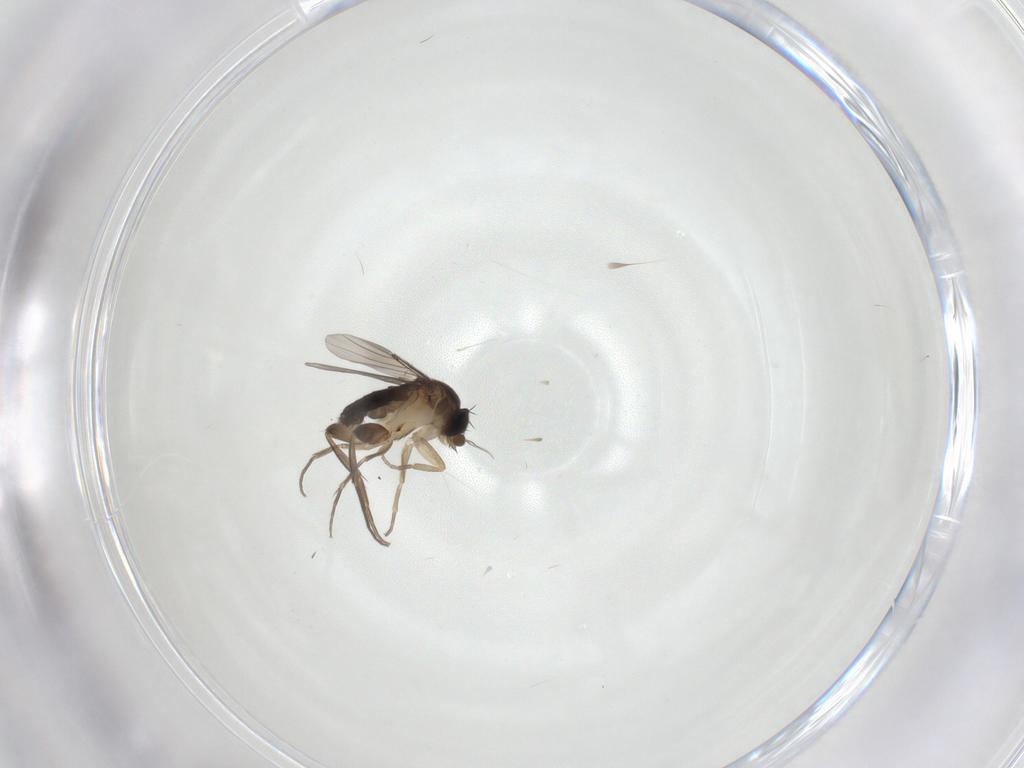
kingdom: Animalia
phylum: Arthropoda
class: Insecta
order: Diptera
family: Phoridae
